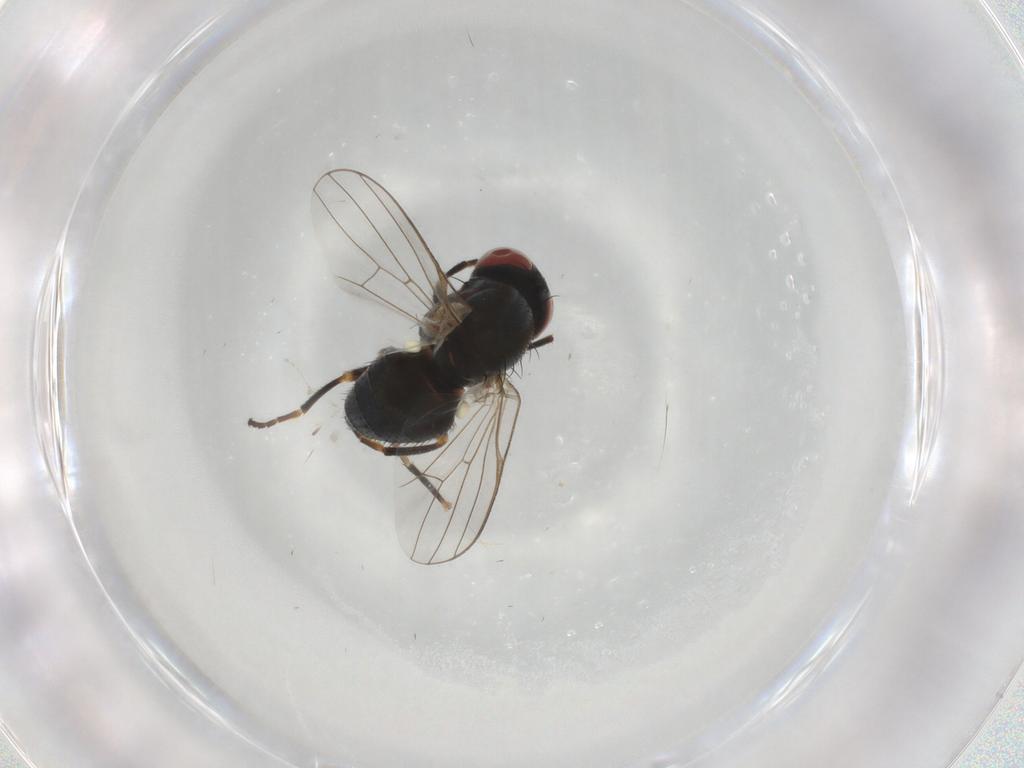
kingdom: Animalia
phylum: Arthropoda
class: Insecta
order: Diptera
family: Chamaemyiidae
